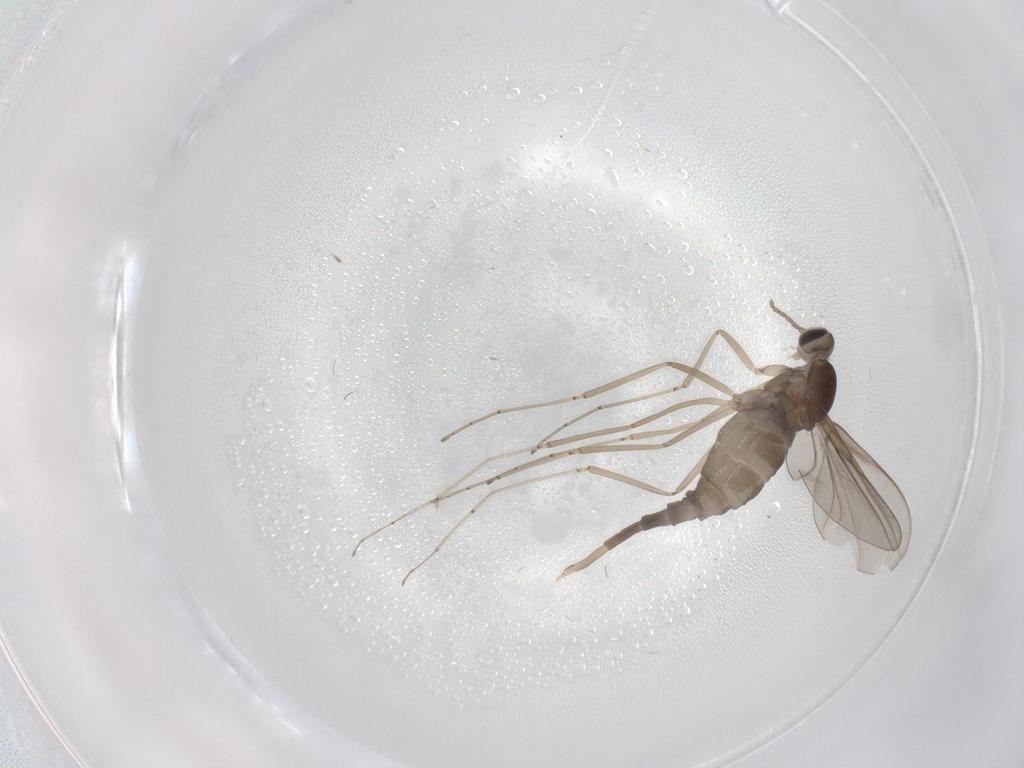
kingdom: Animalia
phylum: Arthropoda
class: Insecta
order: Diptera
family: Cecidomyiidae
